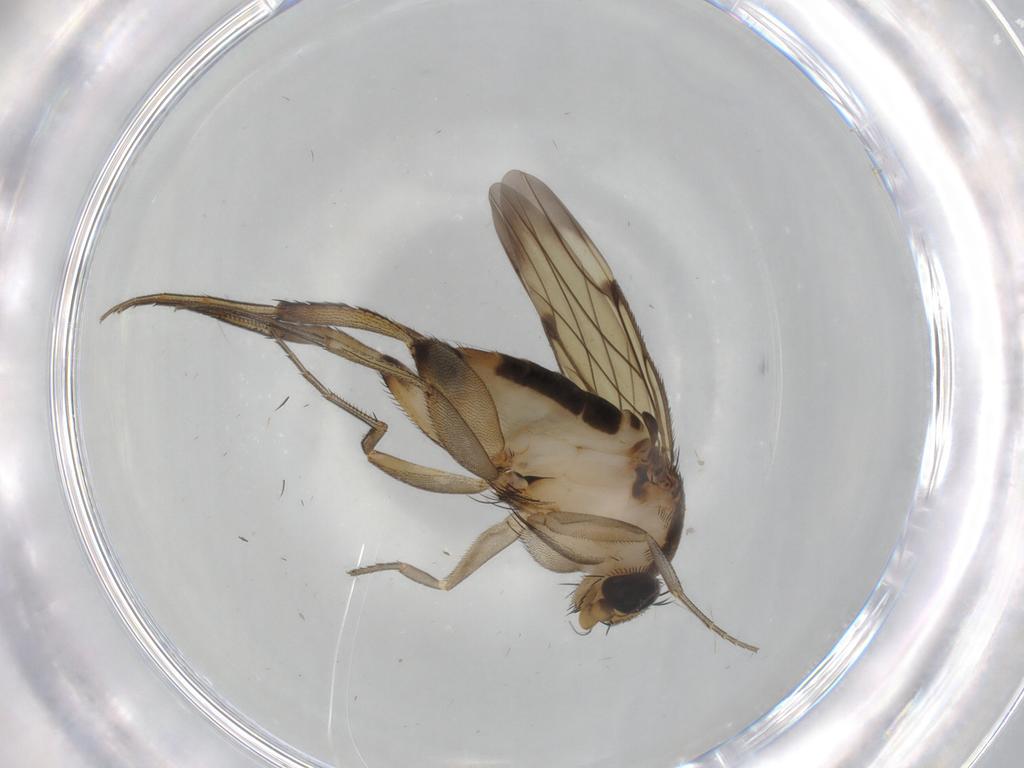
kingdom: Animalia
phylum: Arthropoda
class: Insecta
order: Diptera
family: Phoridae
